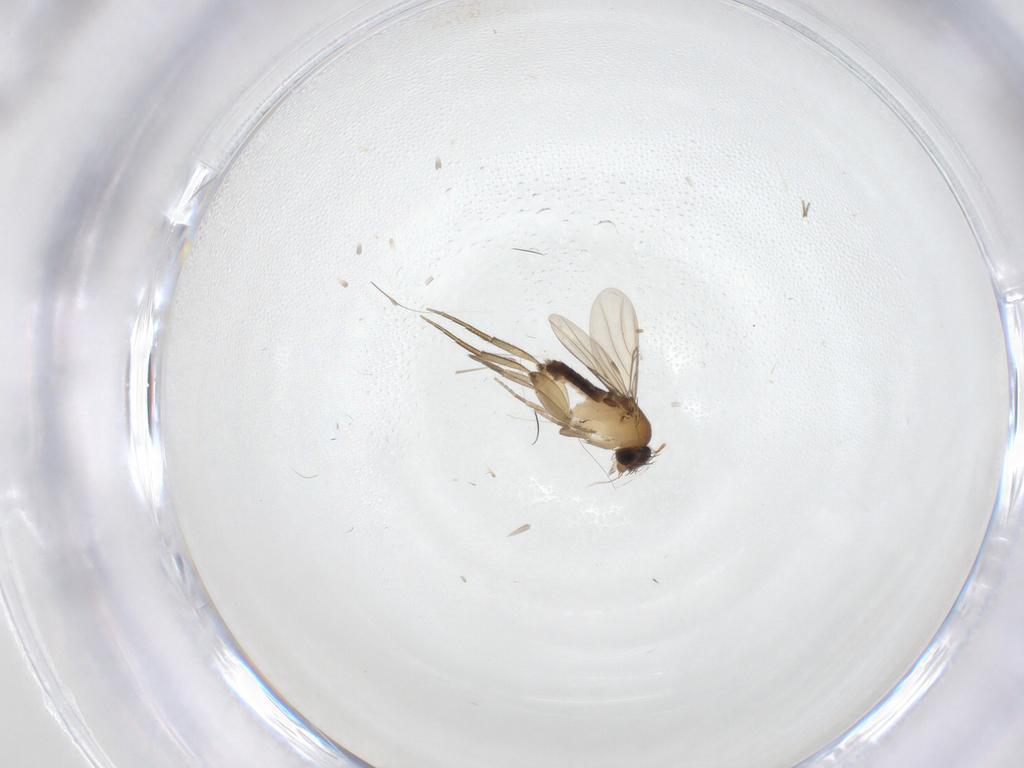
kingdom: Animalia
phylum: Arthropoda
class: Insecta
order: Diptera
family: Phoridae
